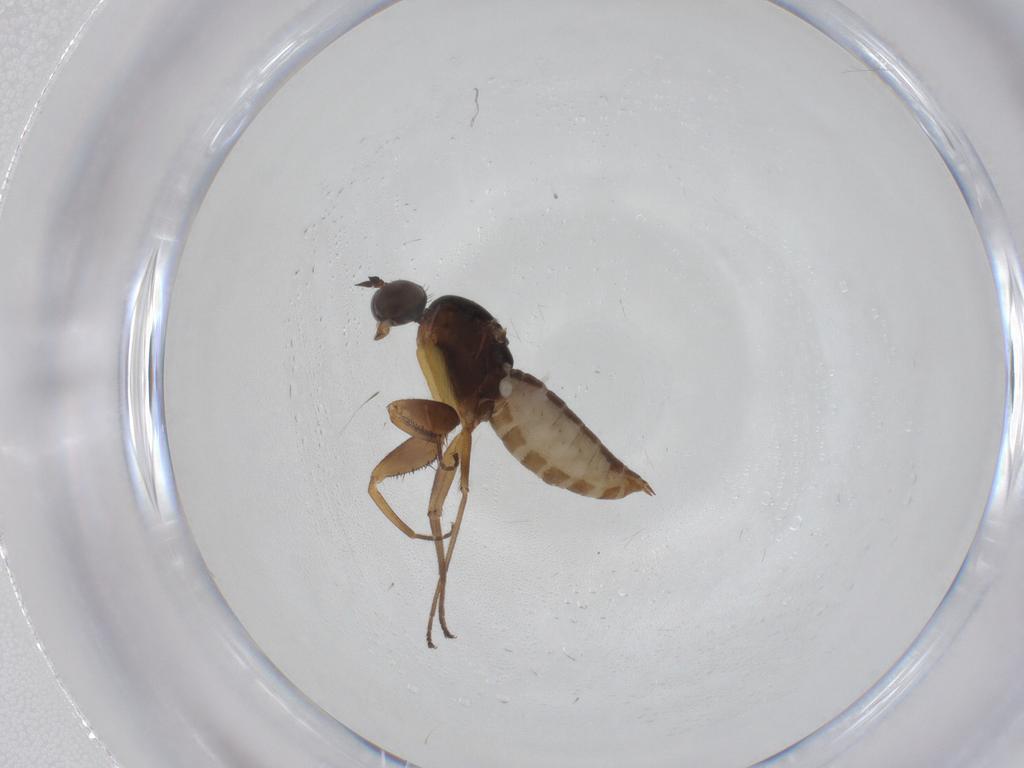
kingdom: Animalia
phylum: Arthropoda
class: Insecta
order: Diptera
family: Empididae
